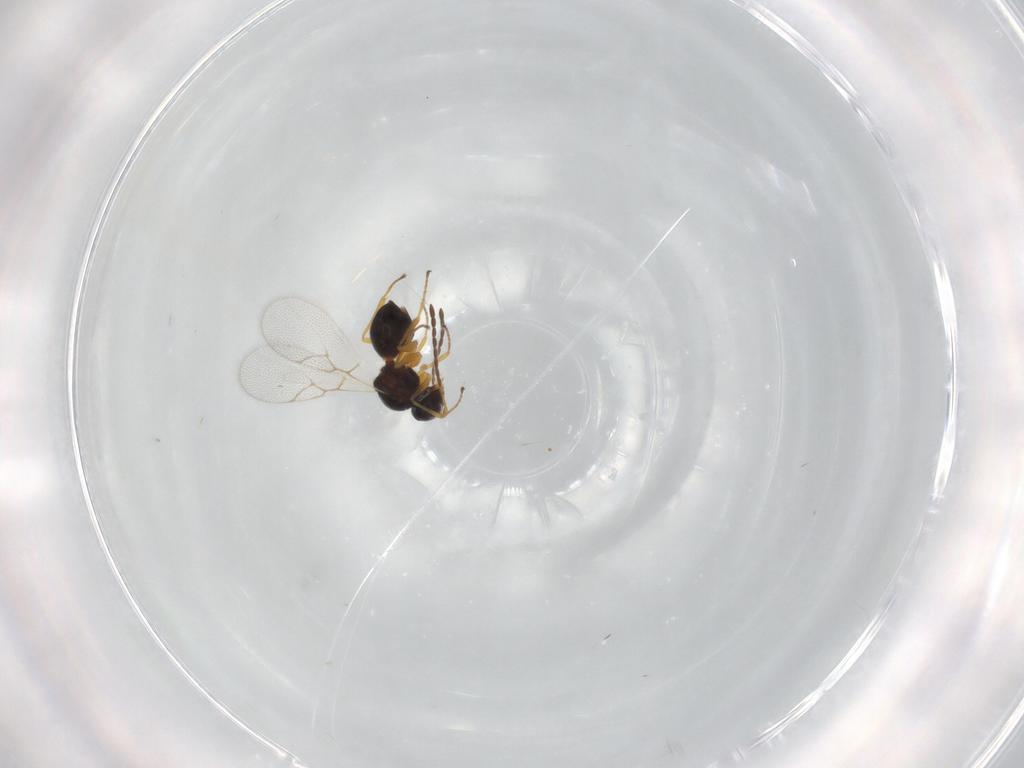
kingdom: Animalia
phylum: Arthropoda
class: Insecta
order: Hymenoptera
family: Figitidae
